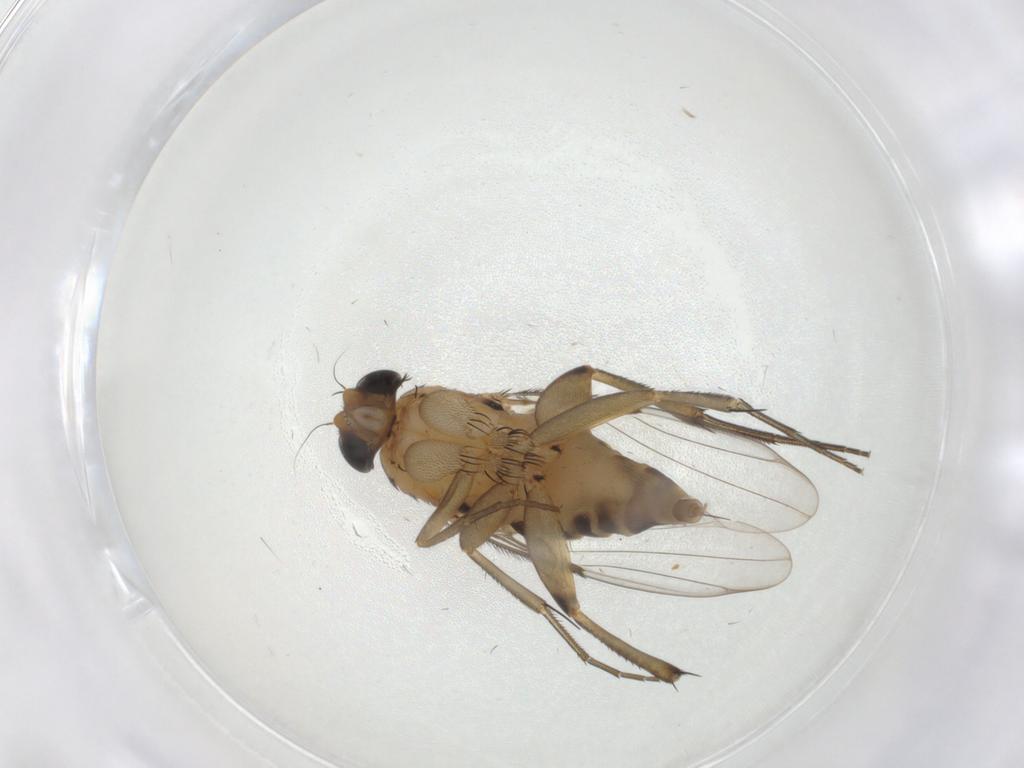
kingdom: Animalia
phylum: Arthropoda
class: Insecta
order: Diptera
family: Phoridae
